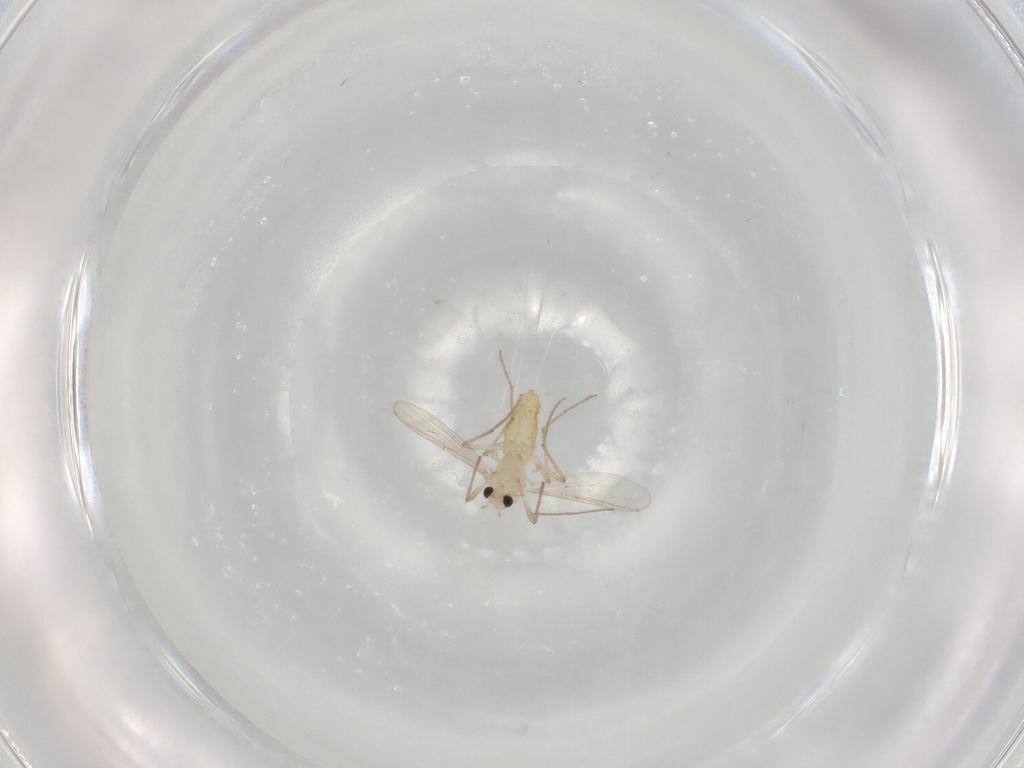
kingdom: Animalia
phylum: Arthropoda
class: Insecta
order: Diptera
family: Chironomidae
